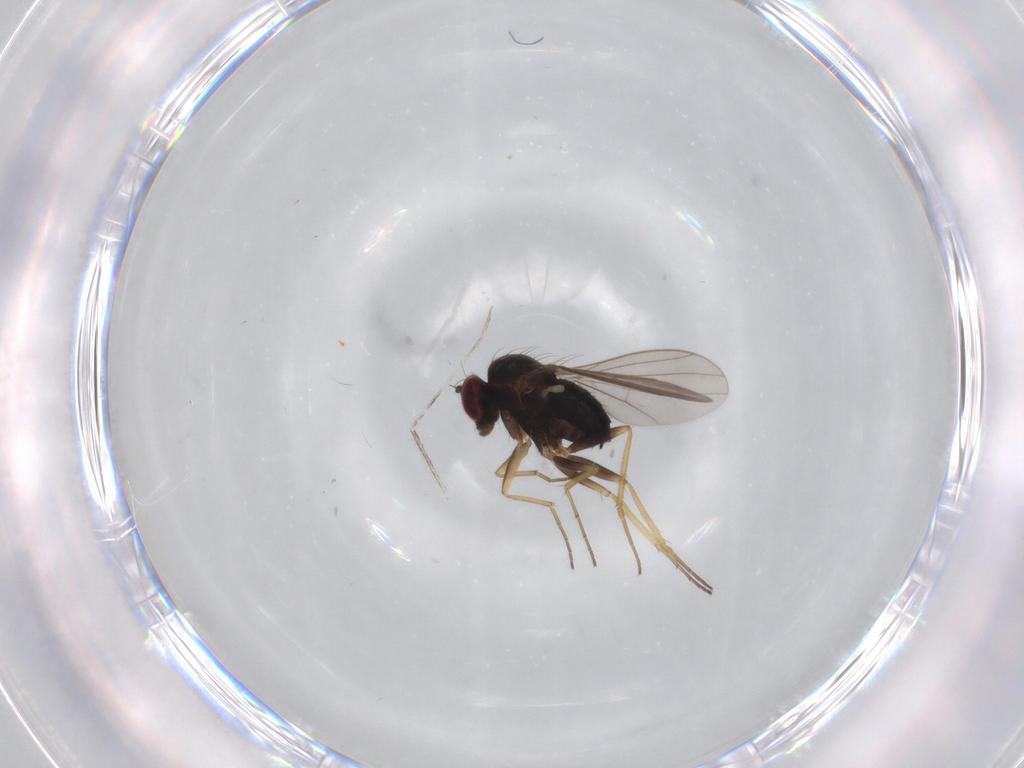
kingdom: Animalia
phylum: Arthropoda
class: Insecta
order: Diptera
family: Dolichopodidae
